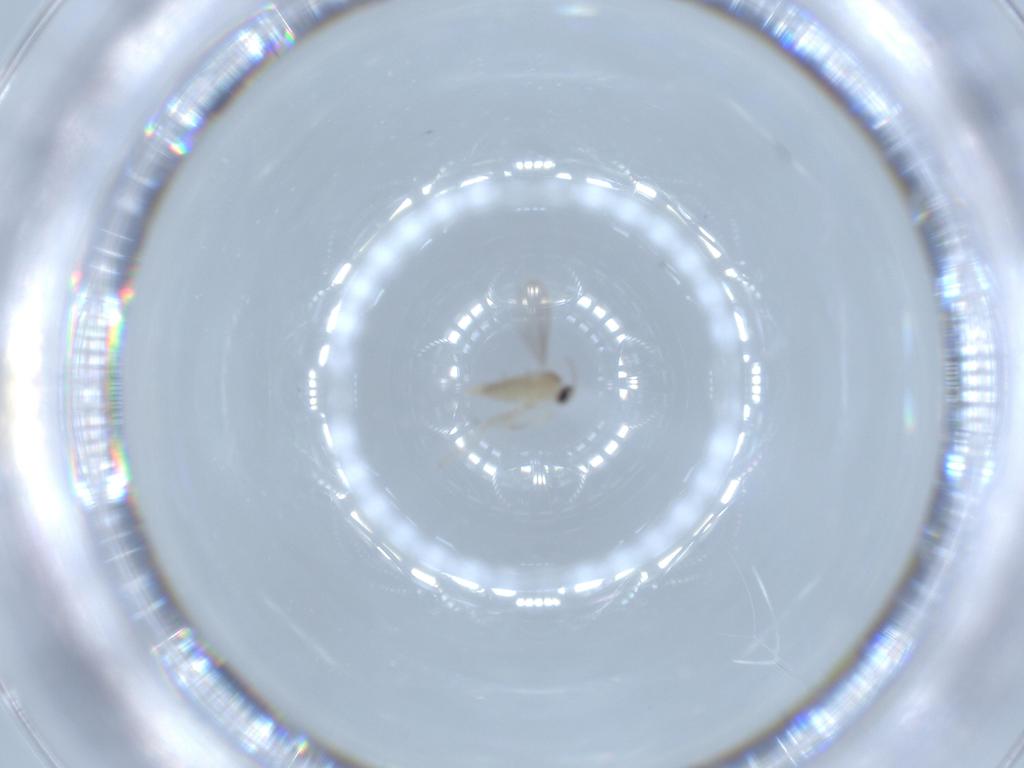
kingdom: Animalia
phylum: Arthropoda
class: Insecta
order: Diptera
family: Cecidomyiidae
